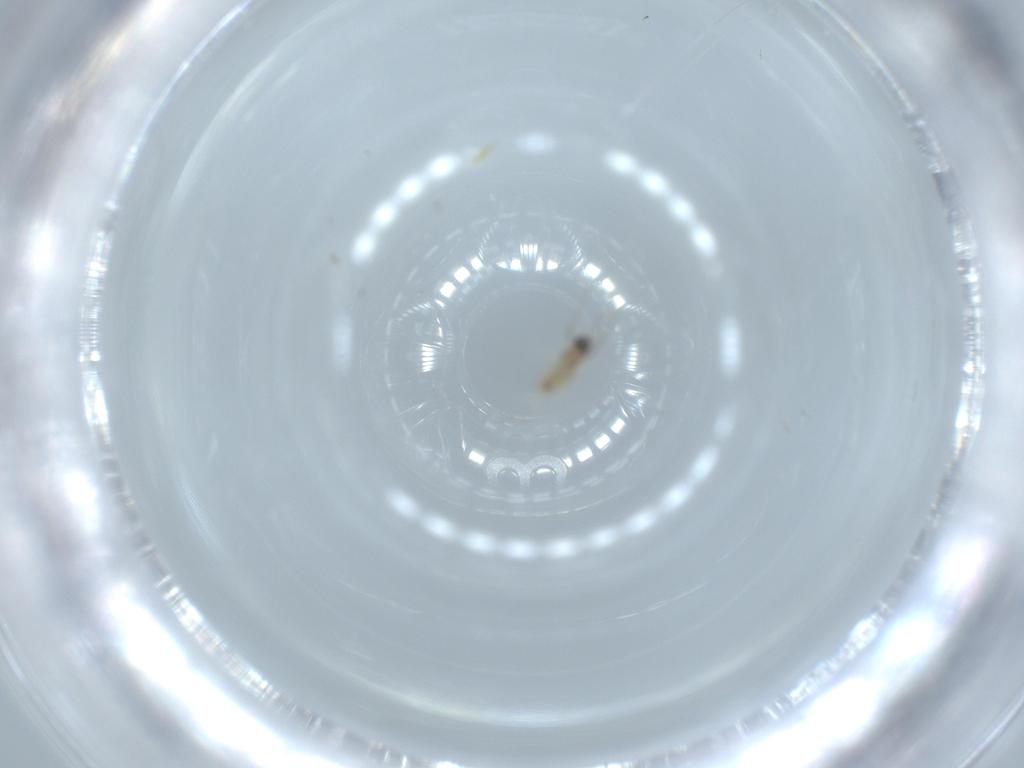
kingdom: Animalia
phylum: Arthropoda
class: Insecta
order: Diptera
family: Cecidomyiidae
